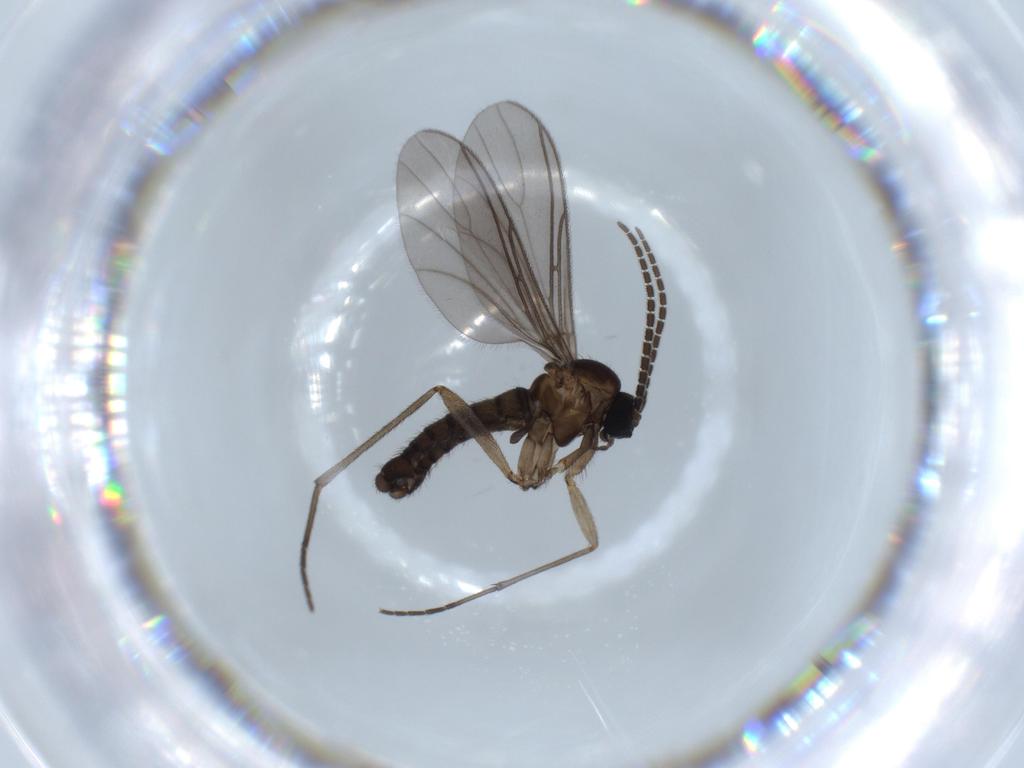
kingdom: Animalia
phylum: Arthropoda
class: Insecta
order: Diptera
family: Sciaridae
